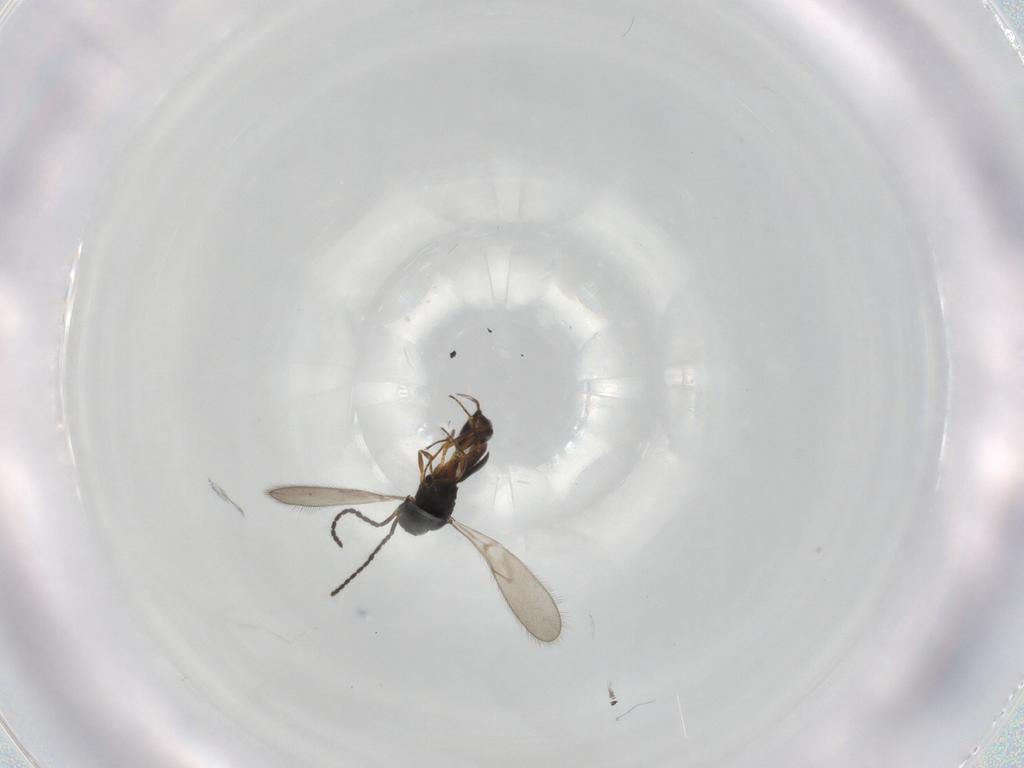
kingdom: Animalia
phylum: Arthropoda
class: Insecta
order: Hymenoptera
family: Scelionidae
